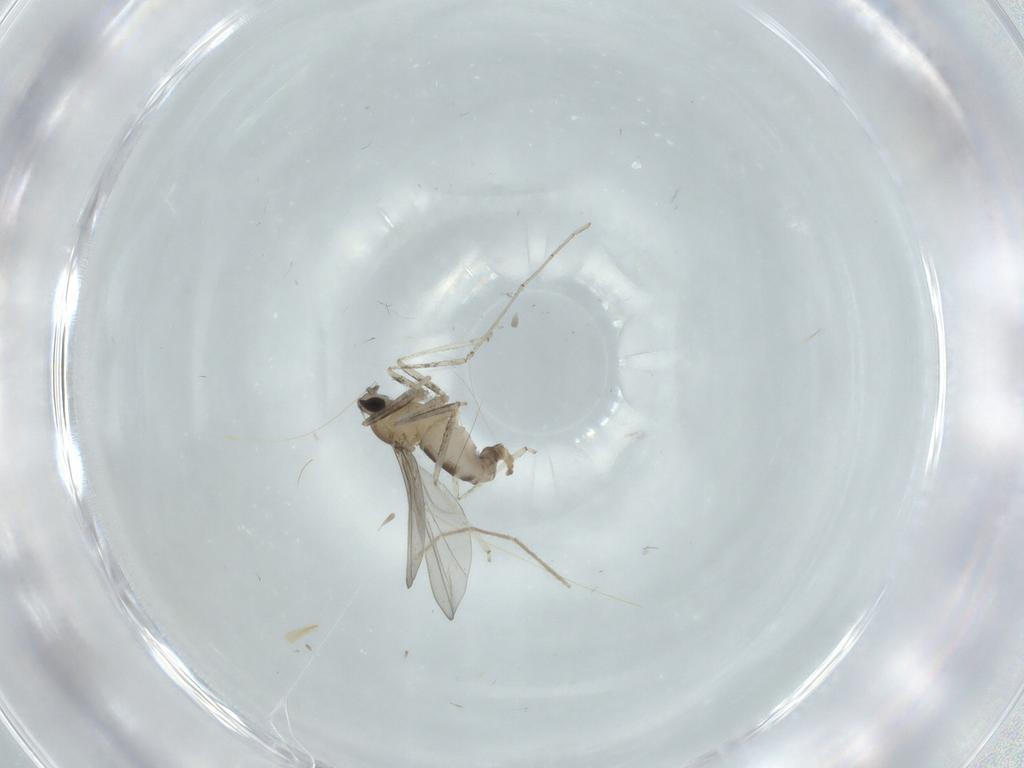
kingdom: Animalia
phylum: Arthropoda
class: Insecta
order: Diptera
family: Cecidomyiidae
